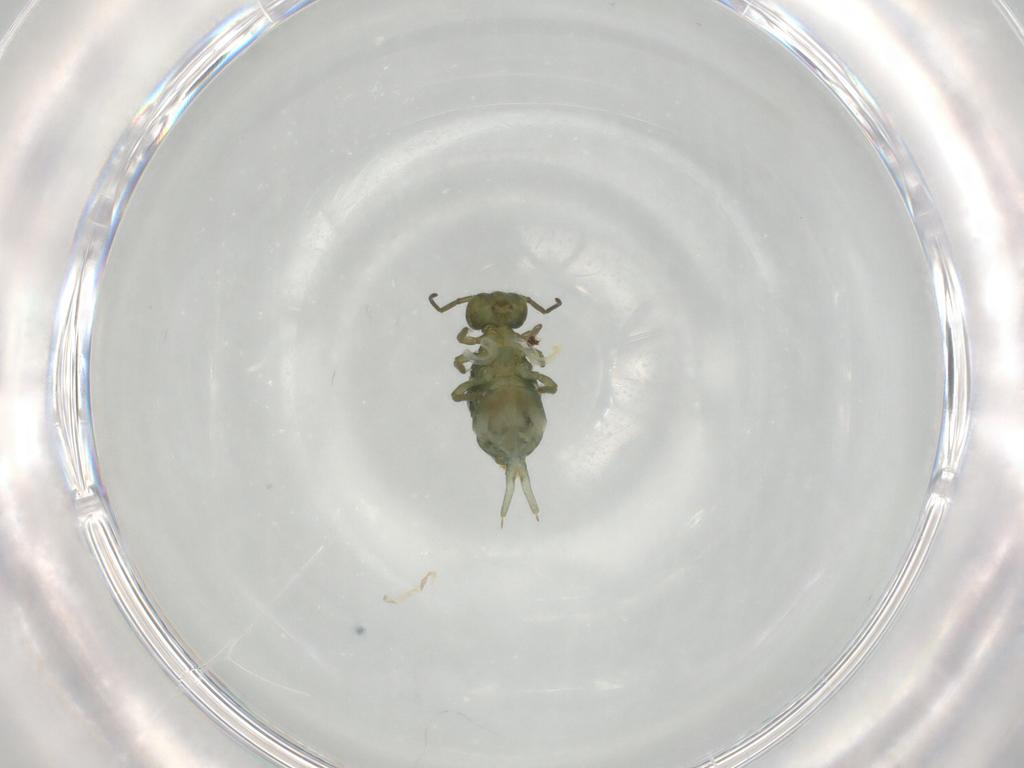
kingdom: Animalia
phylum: Arthropoda
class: Collembola
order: Symphypleona
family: Sminthuridae
